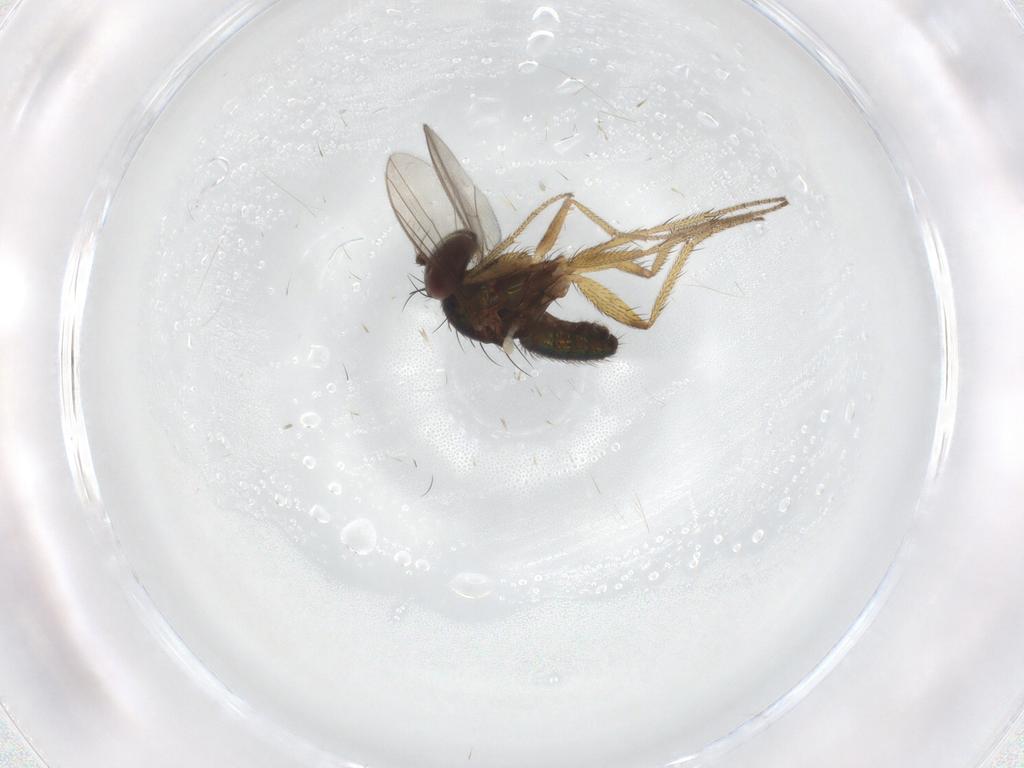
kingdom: Animalia
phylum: Arthropoda
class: Insecta
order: Diptera
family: Dolichopodidae
